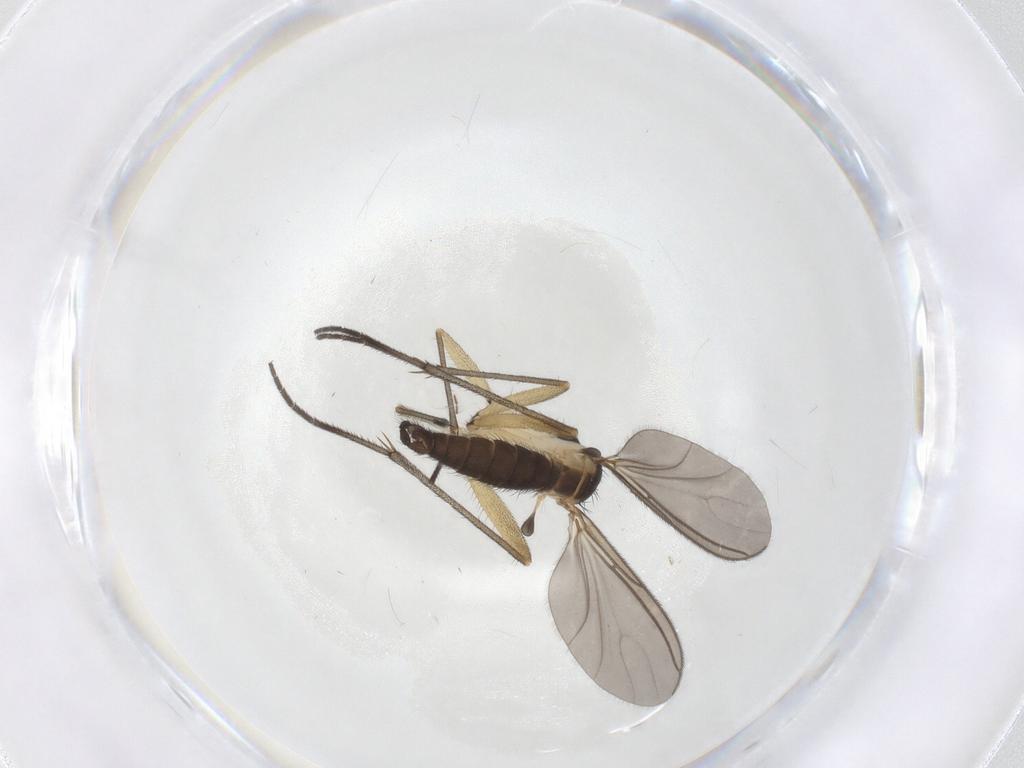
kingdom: Animalia
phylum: Arthropoda
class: Insecta
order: Diptera
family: Sciaridae
